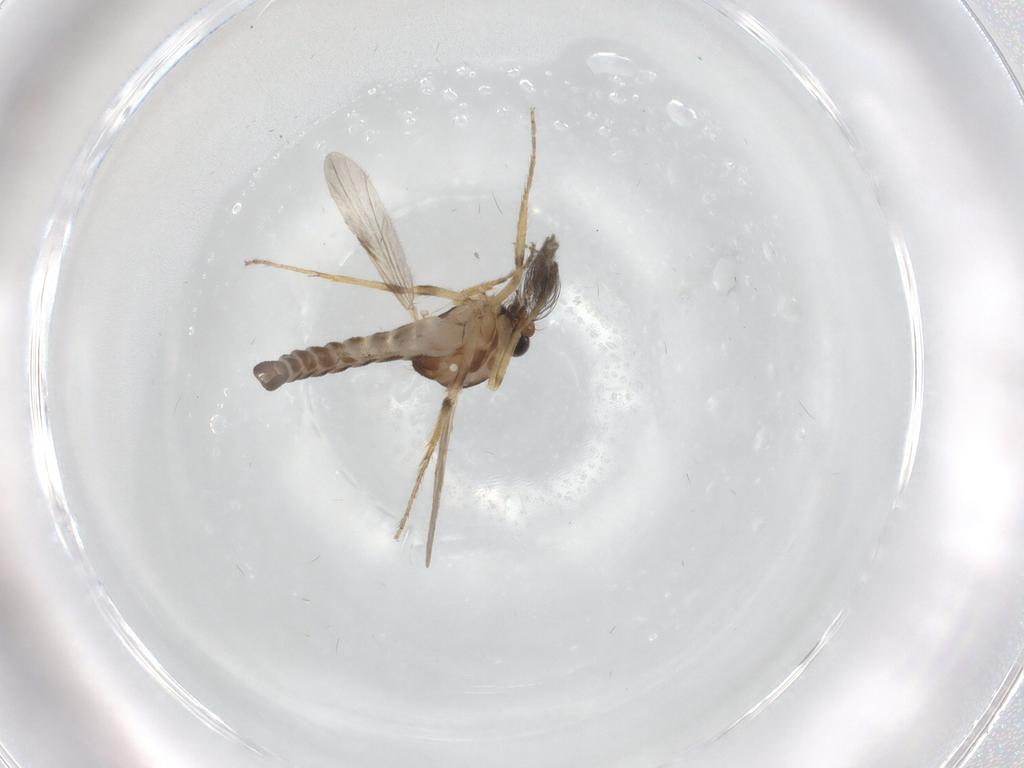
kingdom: Animalia
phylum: Arthropoda
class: Insecta
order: Diptera
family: Ceratopogonidae
